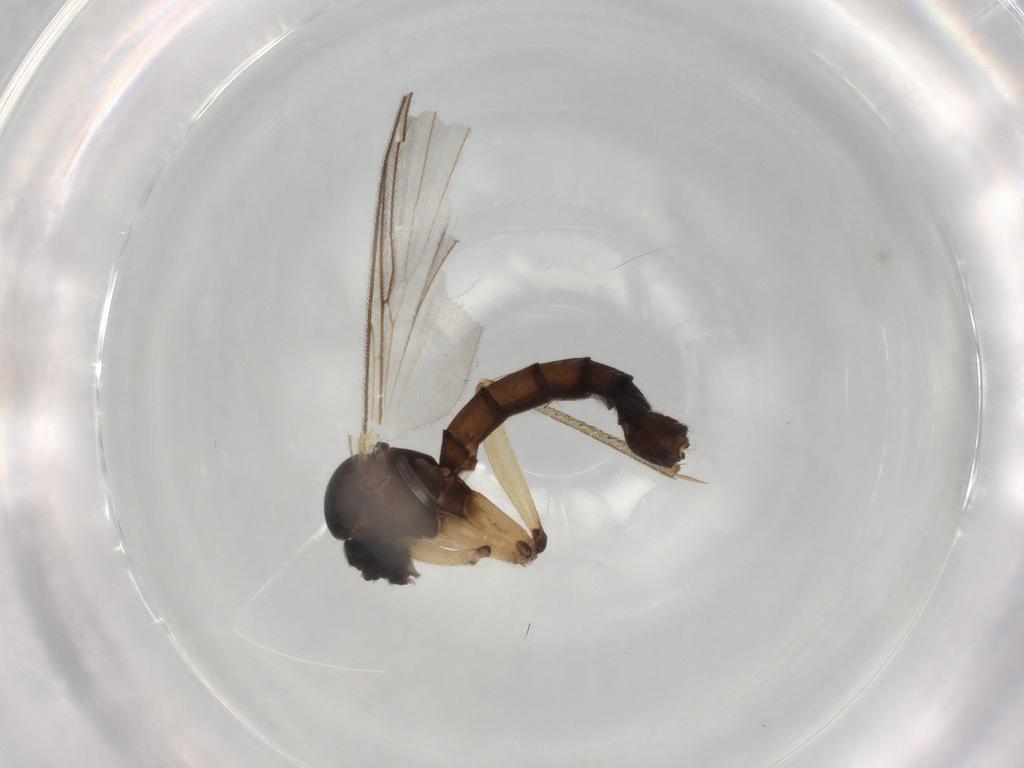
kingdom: Animalia
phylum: Arthropoda
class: Insecta
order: Diptera
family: Mycetophilidae
